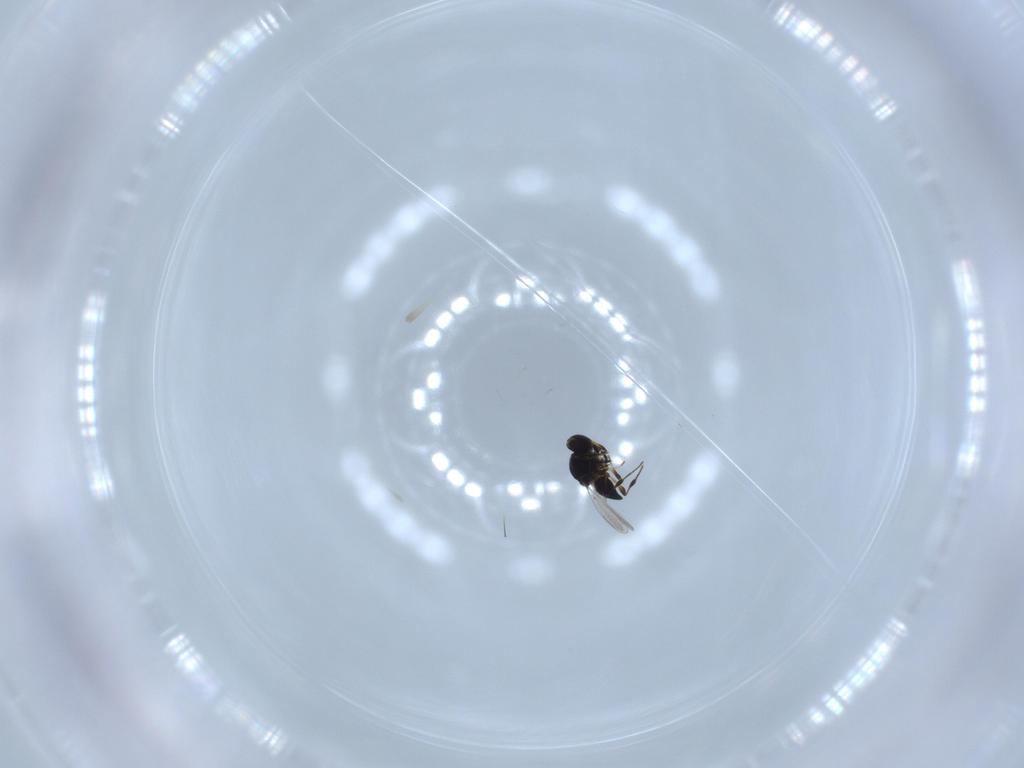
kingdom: Animalia
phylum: Arthropoda
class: Insecta
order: Hymenoptera
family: Platygastridae
